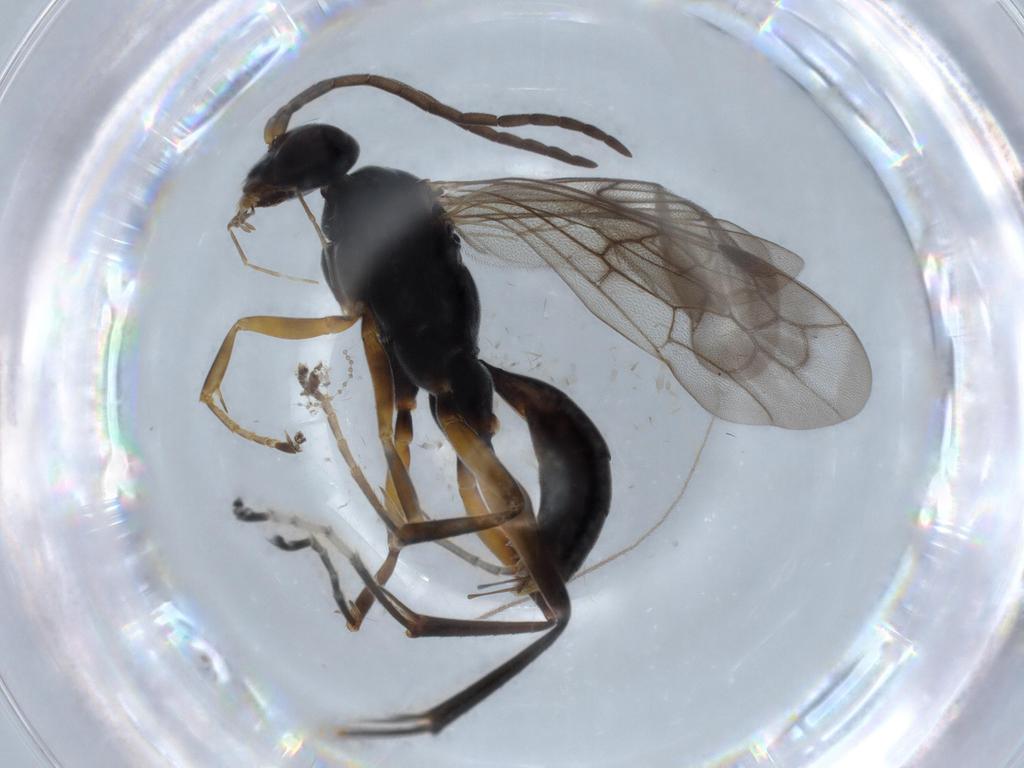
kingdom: Animalia
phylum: Arthropoda
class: Insecta
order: Hymenoptera
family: Pompilidae
